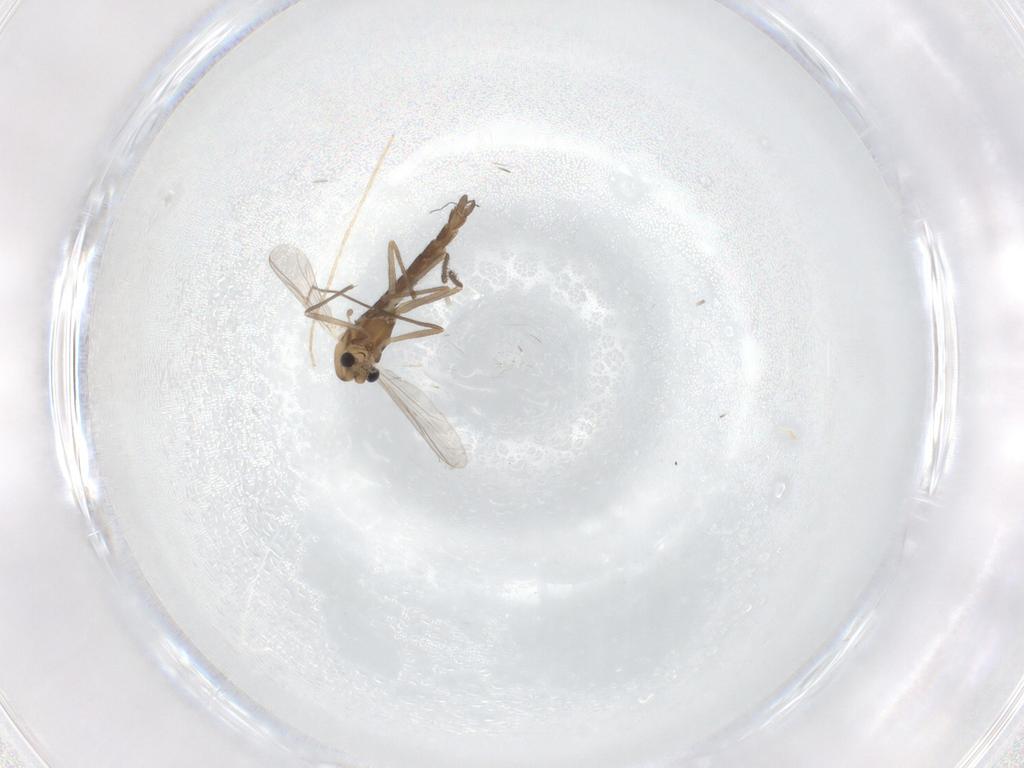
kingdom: Animalia
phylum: Arthropoda
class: Insecta
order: Diptera
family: Chironomidae
